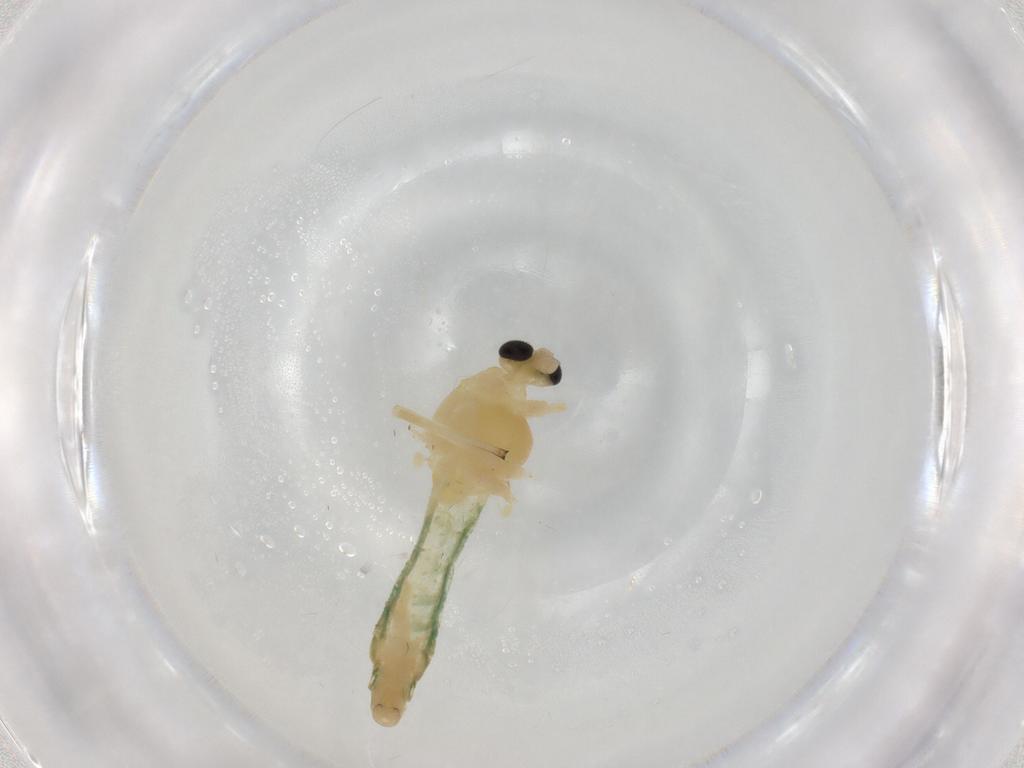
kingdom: Animalia
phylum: Arthropoda
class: Insecta
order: Diptera
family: Chironomidae
